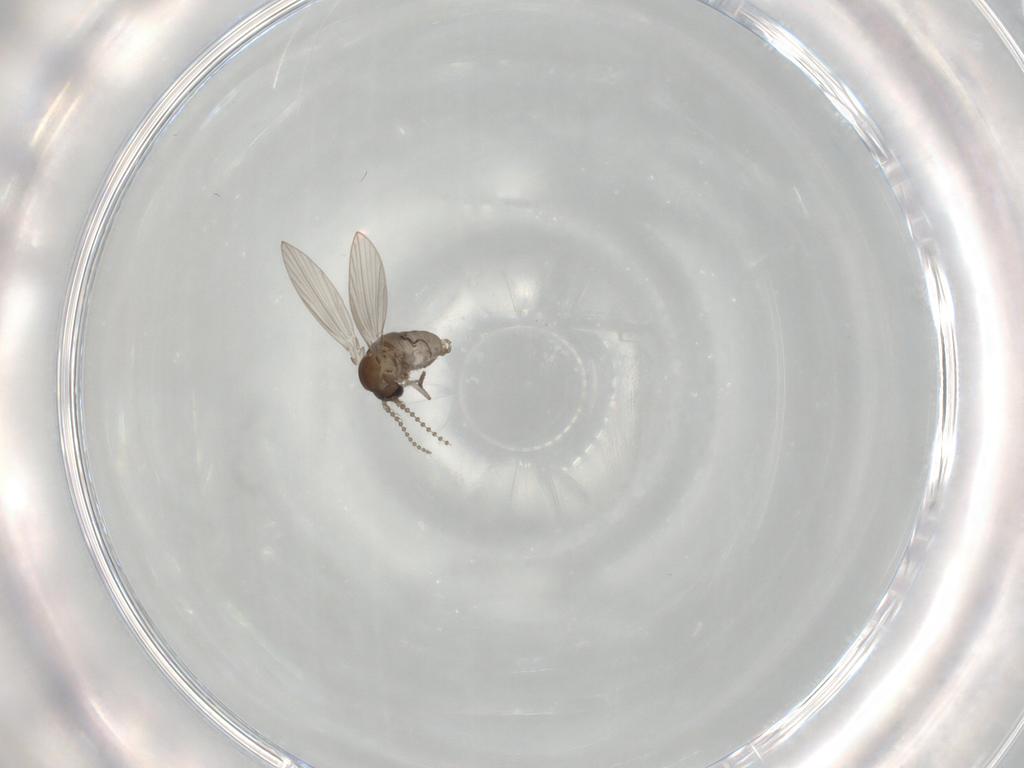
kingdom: Animalia
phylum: Arthropoda
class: Insecta
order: Diptera
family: Psychodidae
